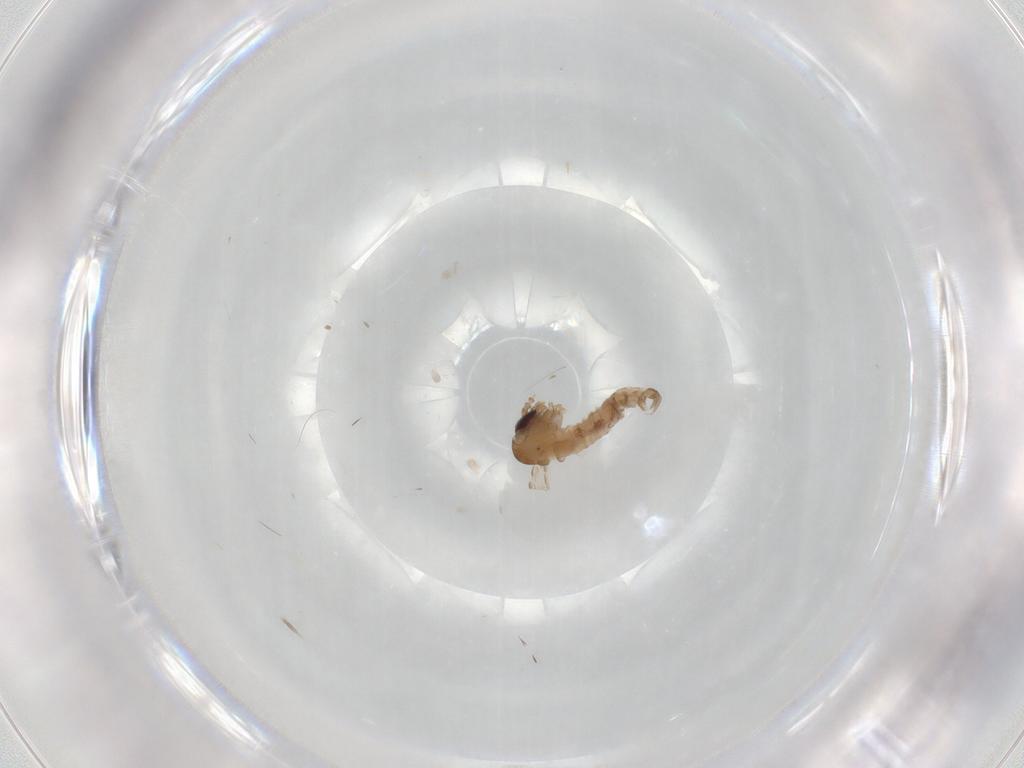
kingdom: Animalia
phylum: Arthropoda
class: Insecta
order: Diptera
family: Psychodidae
